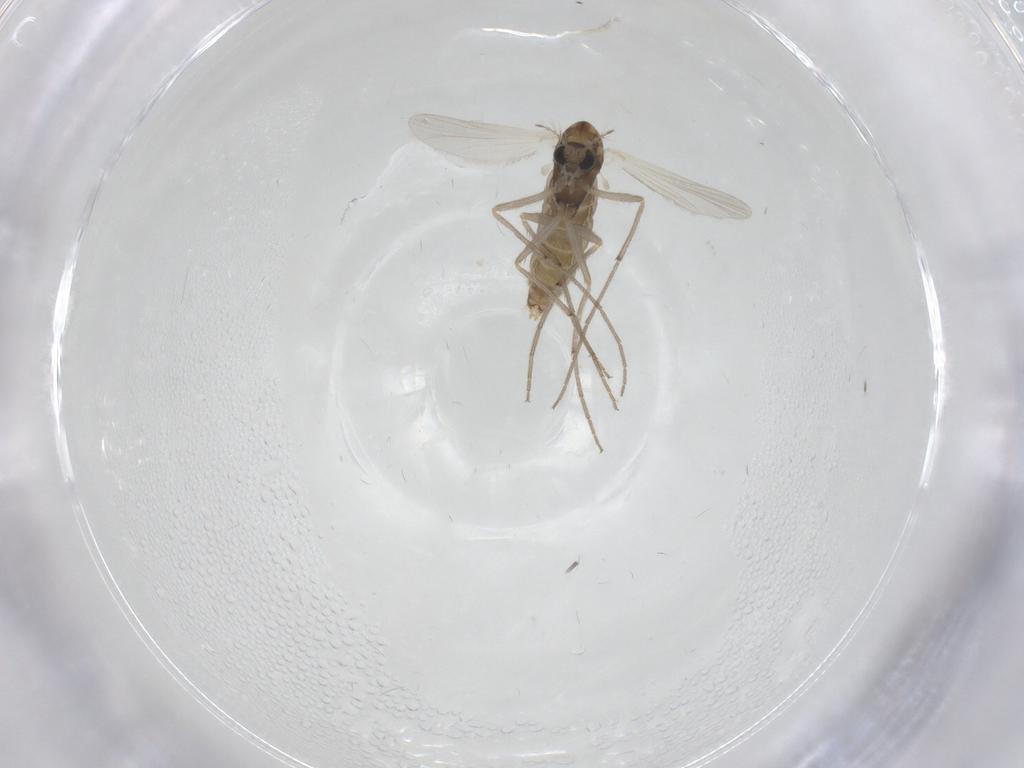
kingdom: Animalia
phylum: Arthropoda
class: Insecta
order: Diptera
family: Chironomidae
